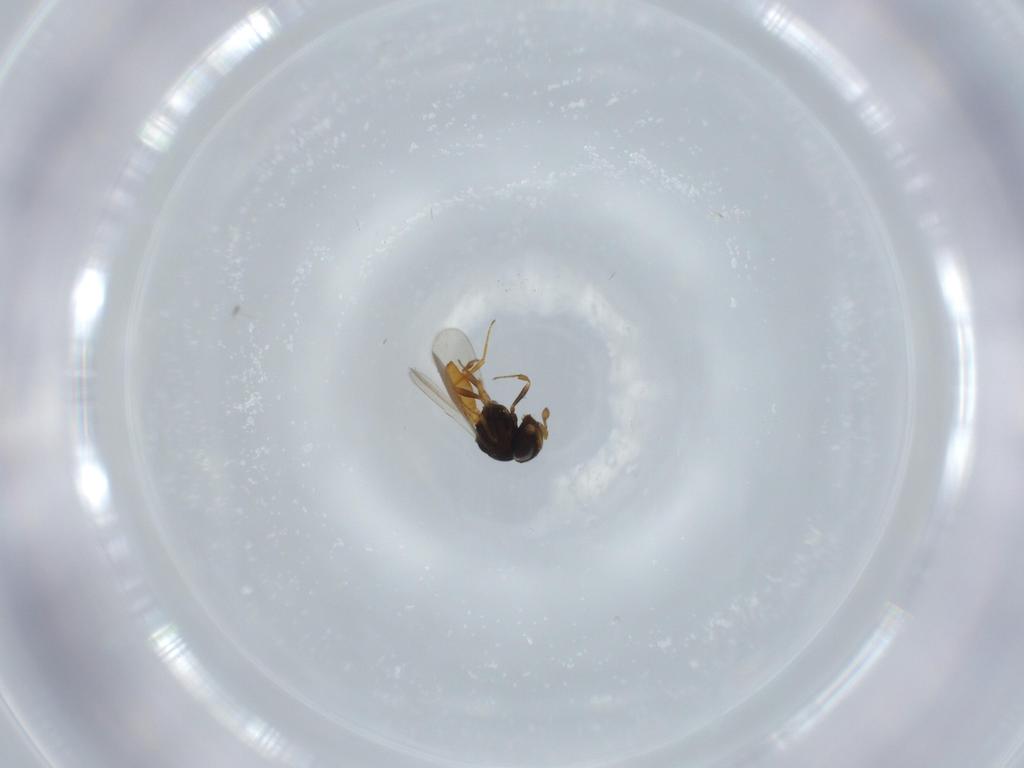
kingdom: Animalia
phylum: Arthropoda
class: Insecta
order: Hymenoptera
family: Scelionidae
